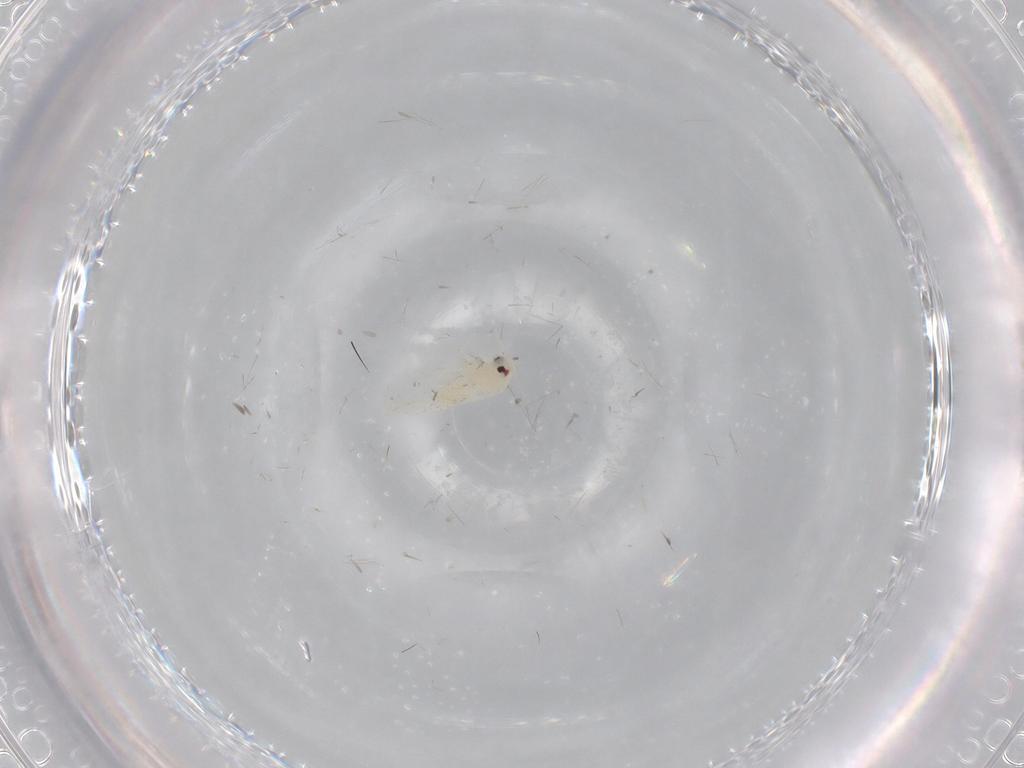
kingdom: Animalia
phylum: Arthropoda
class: Insecta
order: Hemiptera
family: Aleyrodidae
